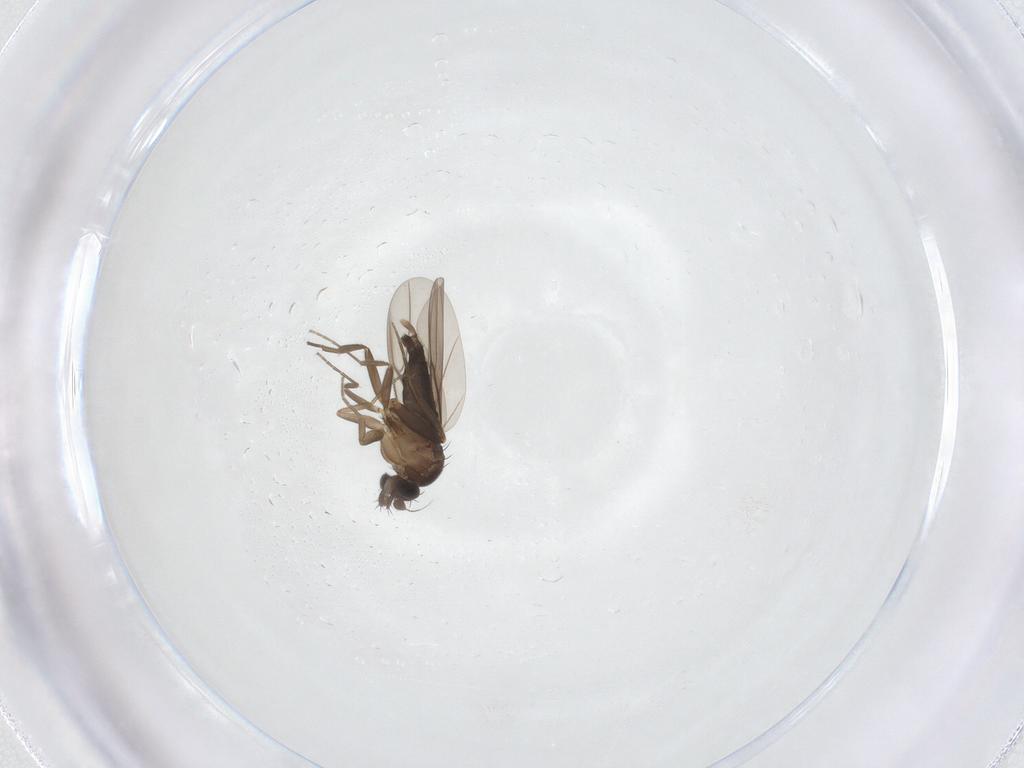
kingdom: Animalia
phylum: Arthropoda
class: Insecta
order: Diptera
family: Phoridae
